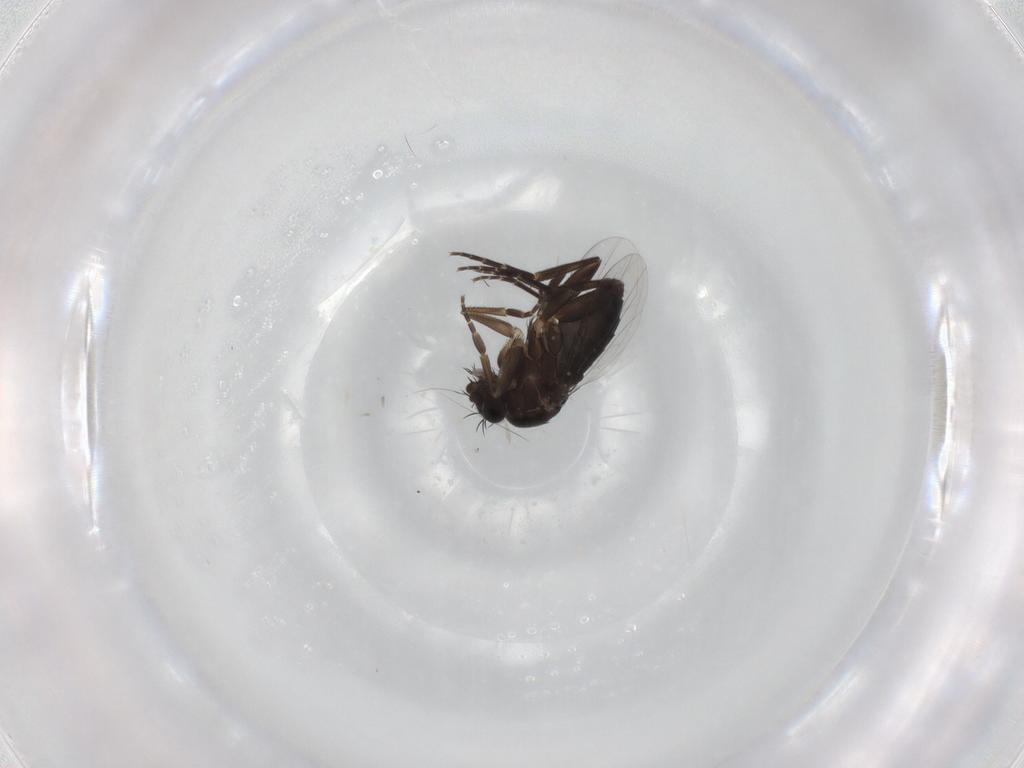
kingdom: Animalia
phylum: Arthropoda
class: Insecta
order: Diptera
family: Phoridae
